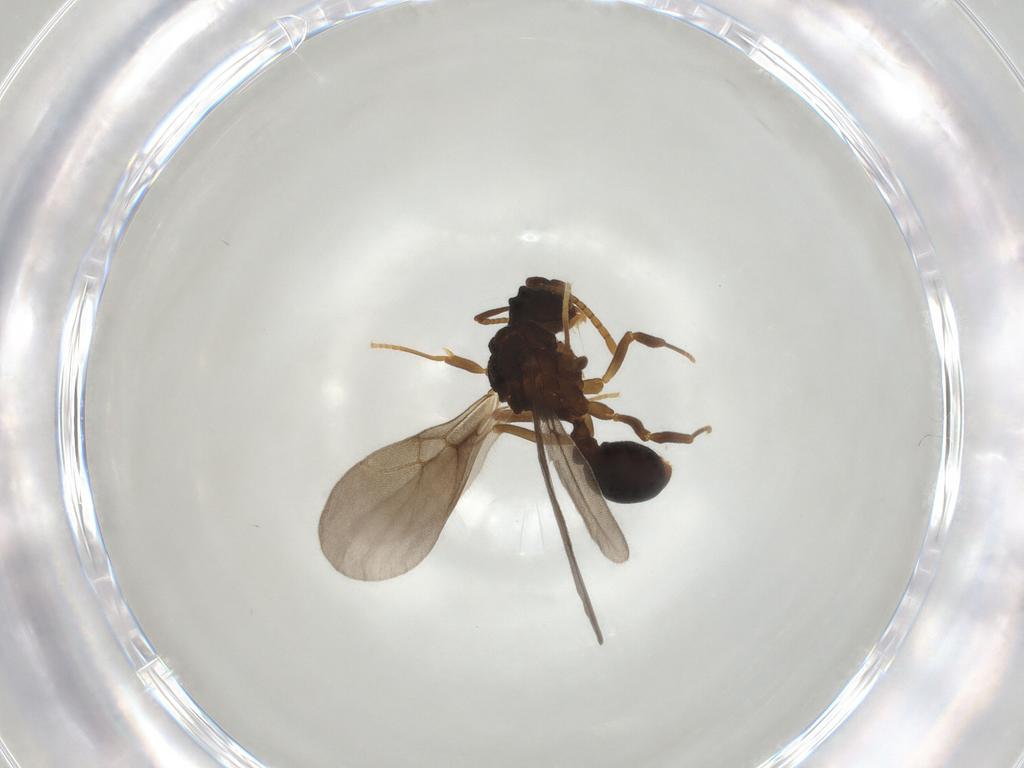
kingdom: Animalia
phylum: Arthropoda
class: Insecta
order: Hymenoptera
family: Formicidae
